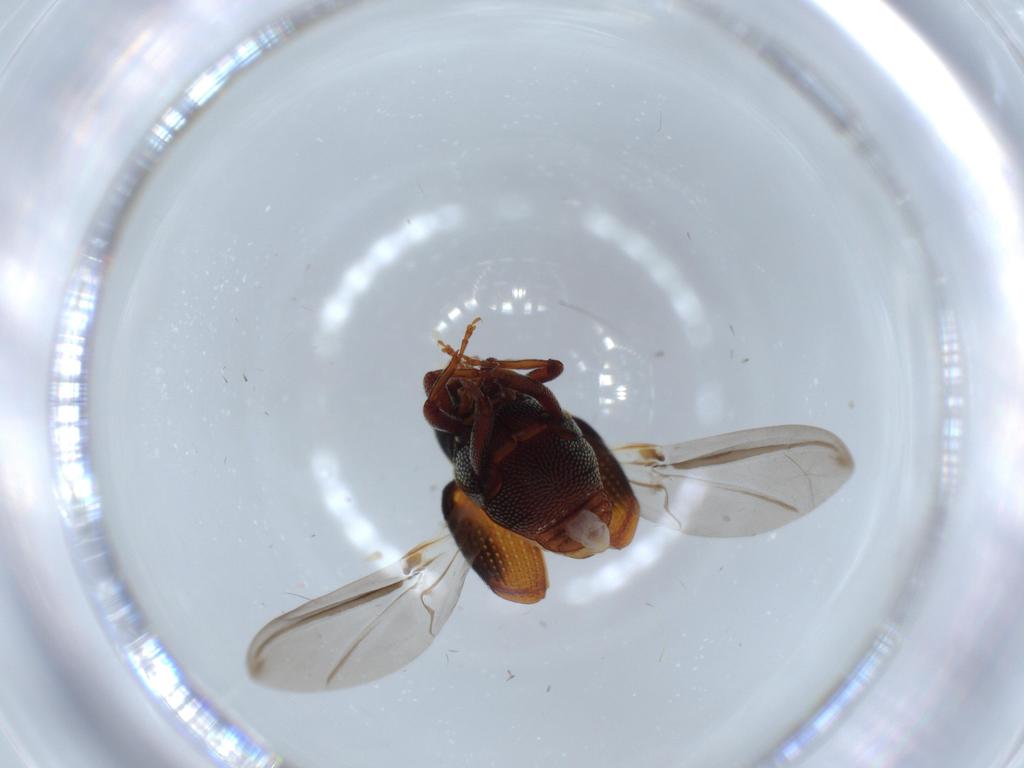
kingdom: Animalia
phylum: Arthropoda
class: Insecta
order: Coleoptera
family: Coccinellidae
